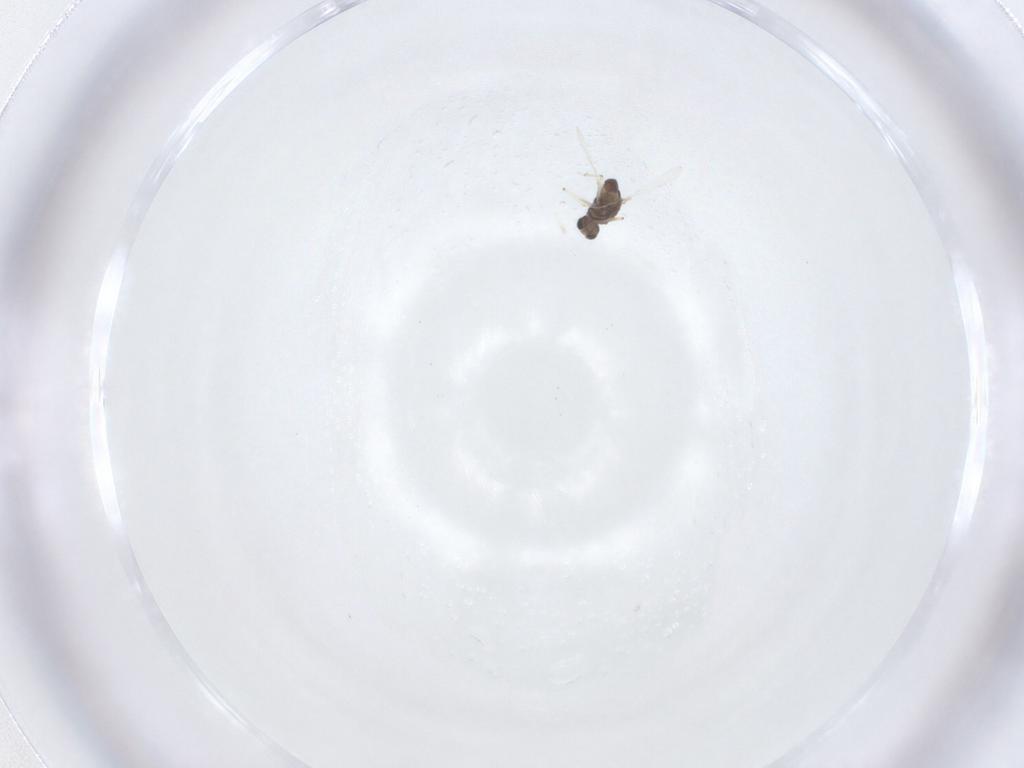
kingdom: Animalia
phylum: Arthropoda
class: Insecta
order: Diptera
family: Chironomidae
